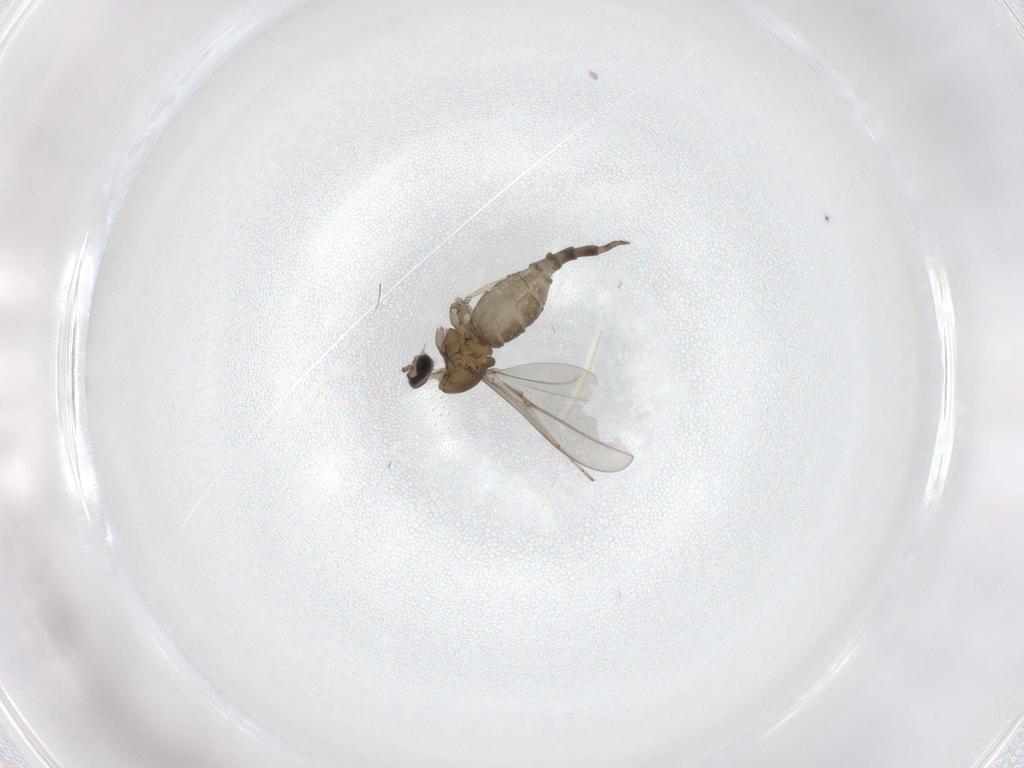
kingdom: Animalia
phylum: Arthropoda
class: Insecta
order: Diptera
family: Cecidomyiidae
